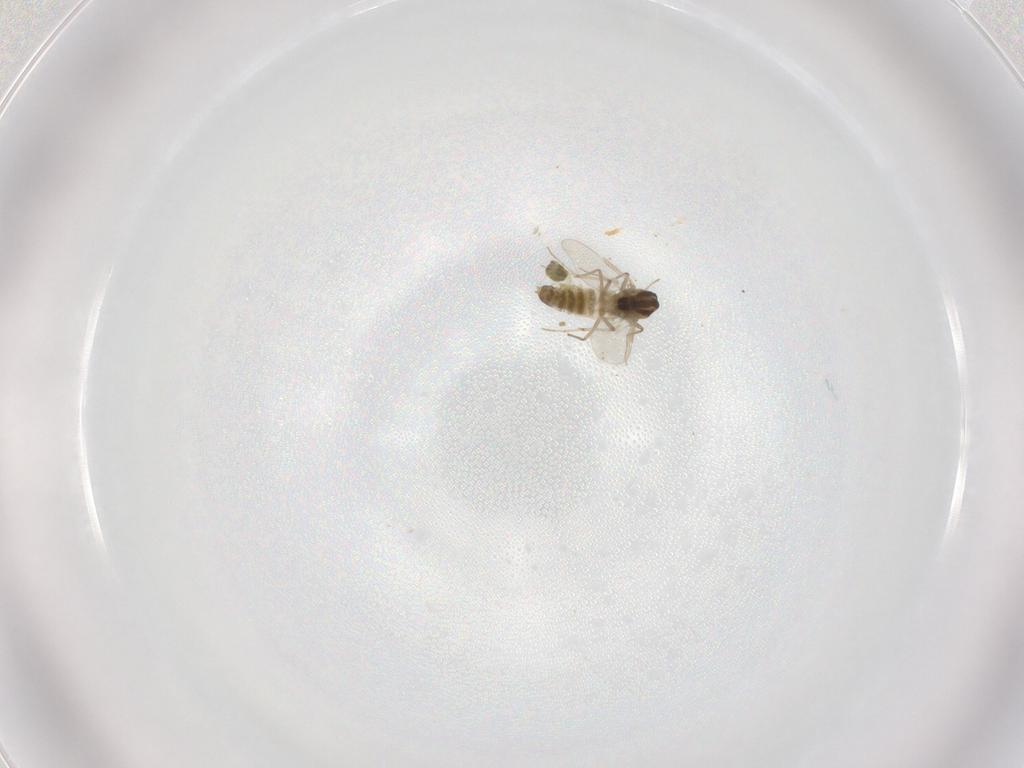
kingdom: Animalia
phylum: Arthropoda
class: Insecta
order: Diptera
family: Chironomidae
